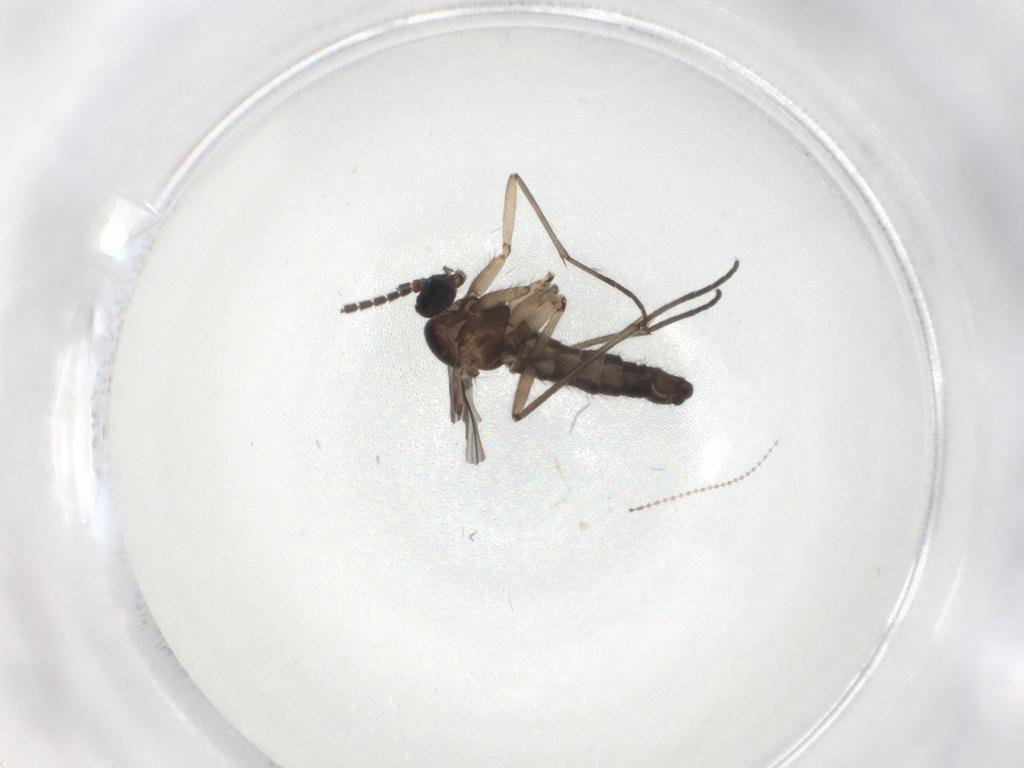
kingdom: Animalia
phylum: Arthropoda
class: Insecta
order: Diptera
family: Sciaridae
